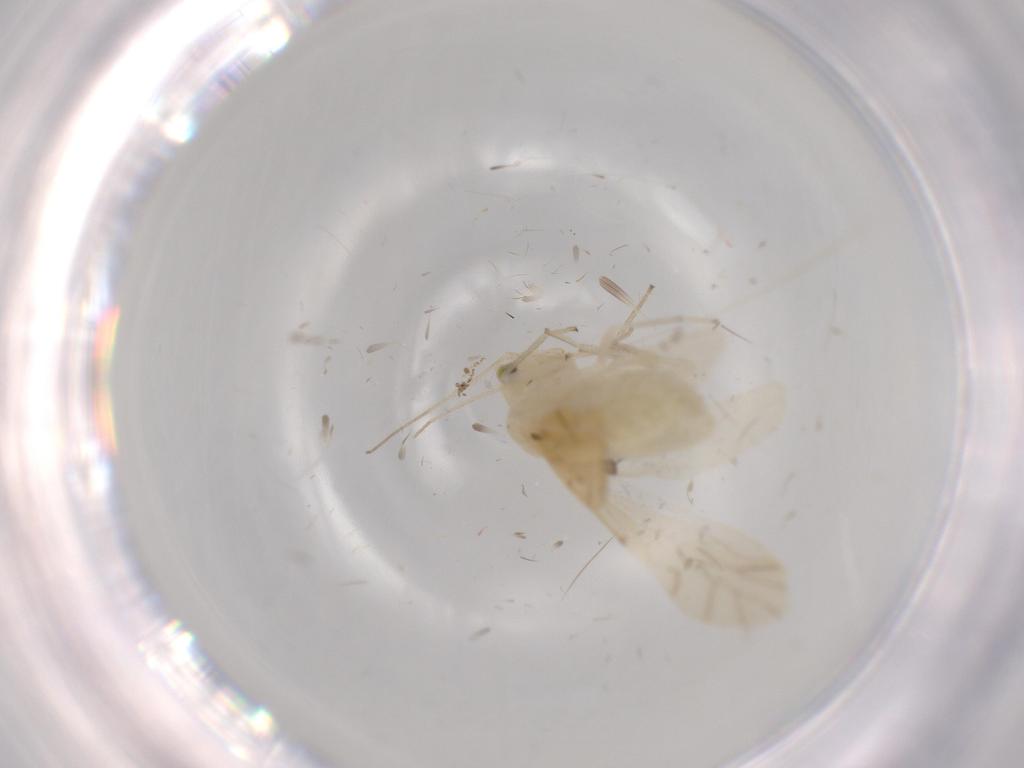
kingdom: Animalia
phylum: Arthropoda
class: Insecta
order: Psocodea
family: Caeciliusidae
